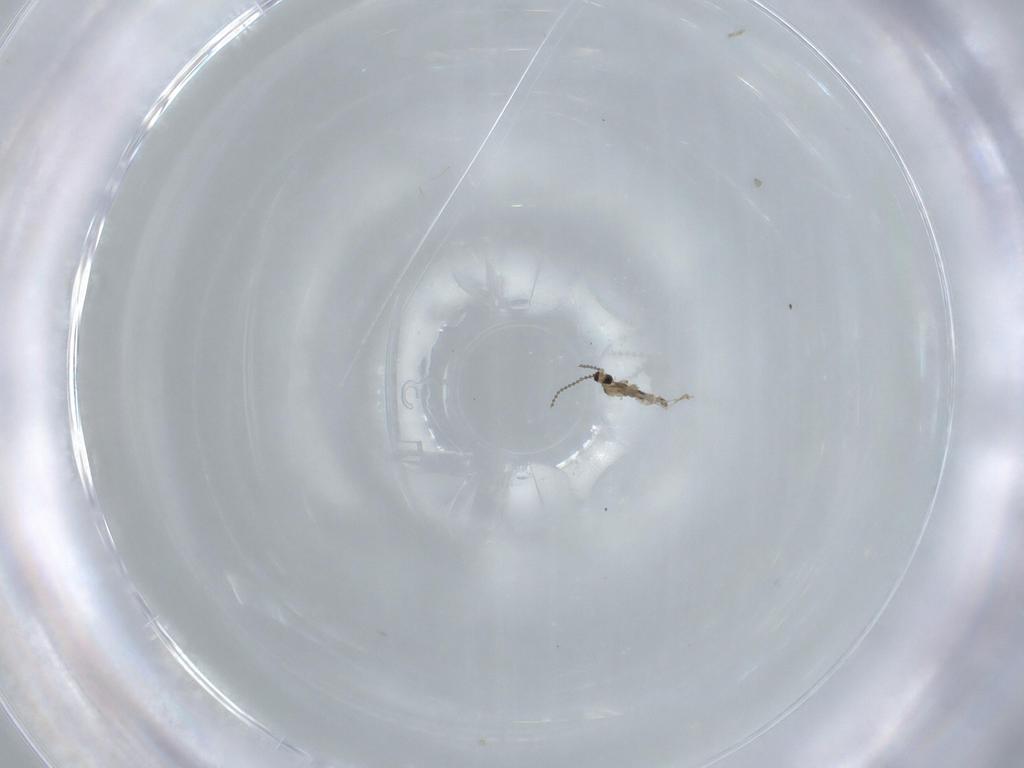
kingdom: Animalia
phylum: Arthropoda
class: Insecta
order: Diptera
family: Cecidomyiidae
